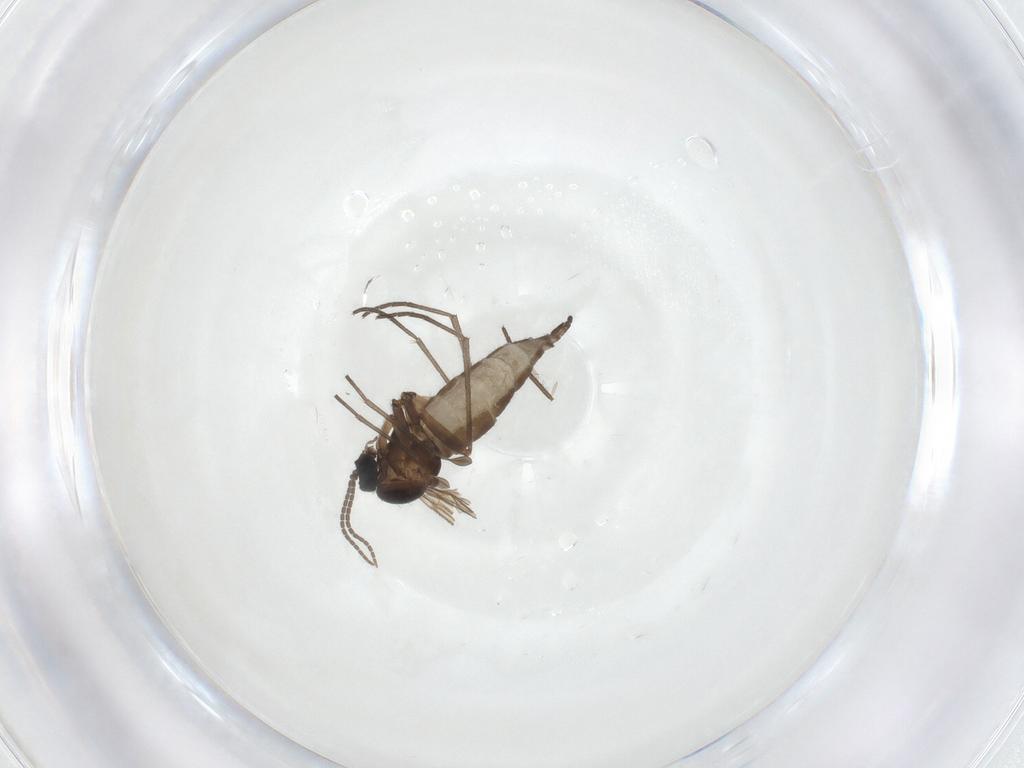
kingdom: Animalia
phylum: Arthropoda
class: Insecta
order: Diptera
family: Sciaridae
